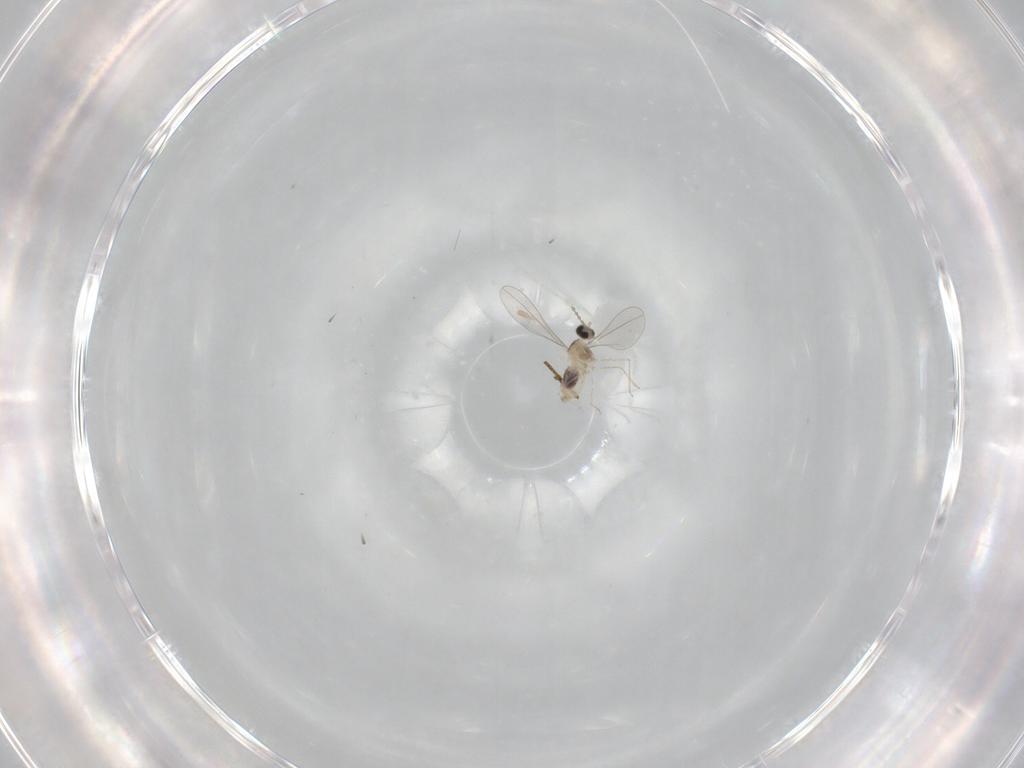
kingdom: Animalia
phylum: Arthropoda
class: Insecta
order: Diptera
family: Cecidomyiidae
